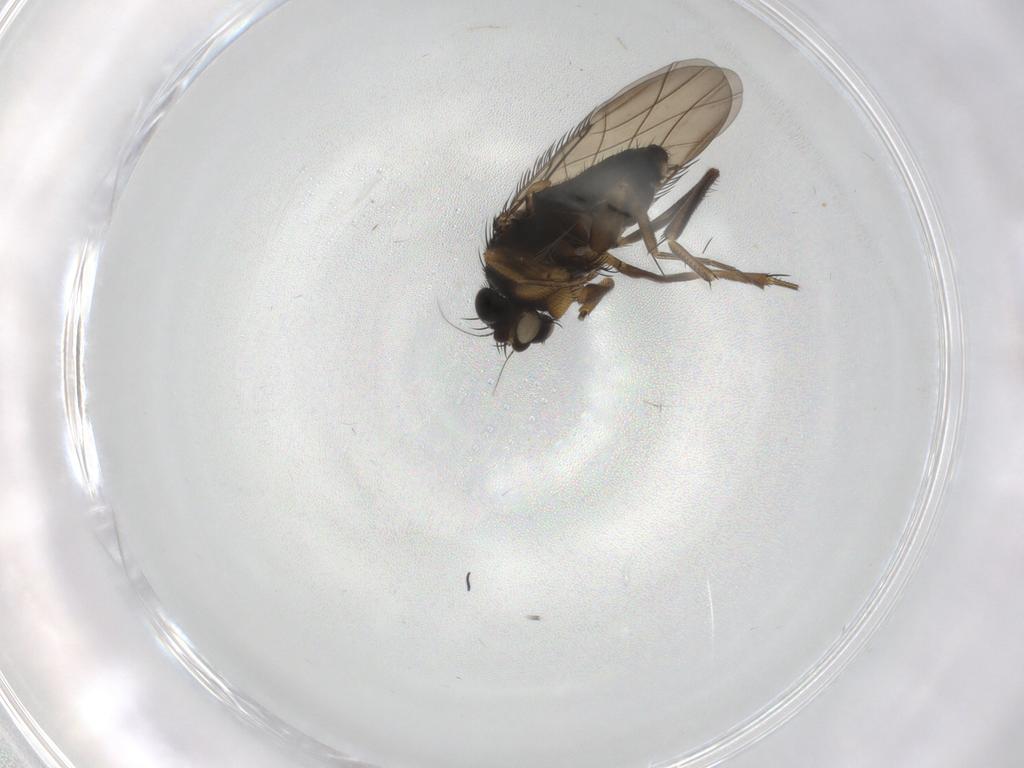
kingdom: Animalia
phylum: Arthropoda
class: Insecta
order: Diptera
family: Phoridae
